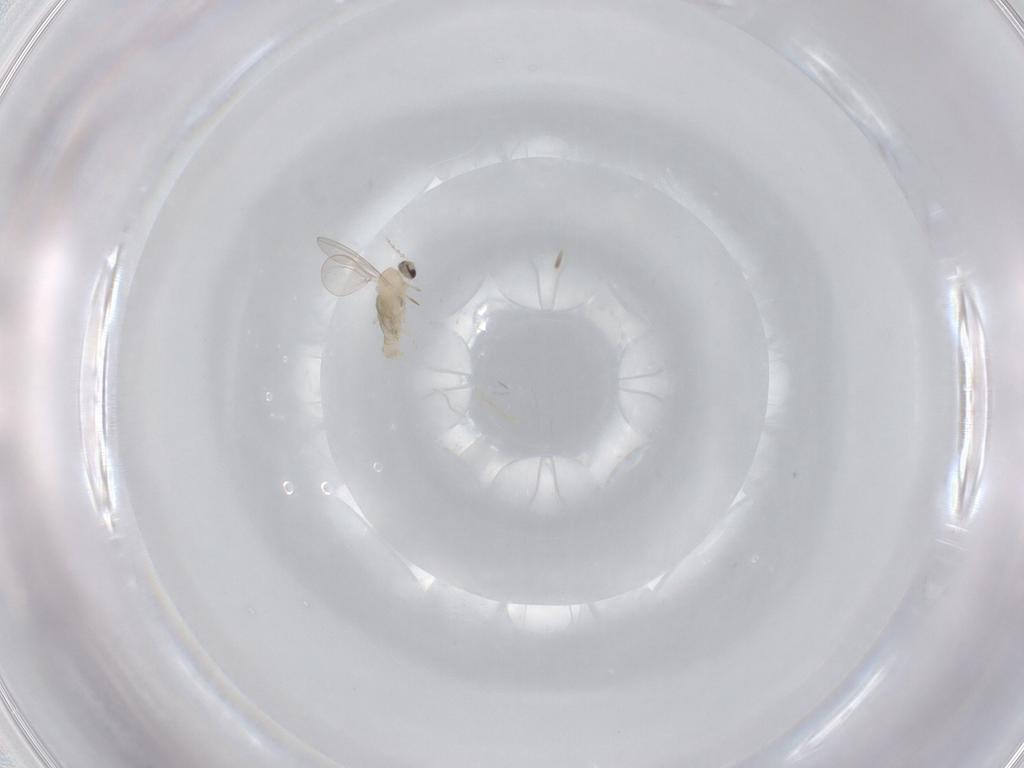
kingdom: Animalia
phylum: Arthropoda
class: Insecta
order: Diptera
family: Cecidomyiidae
